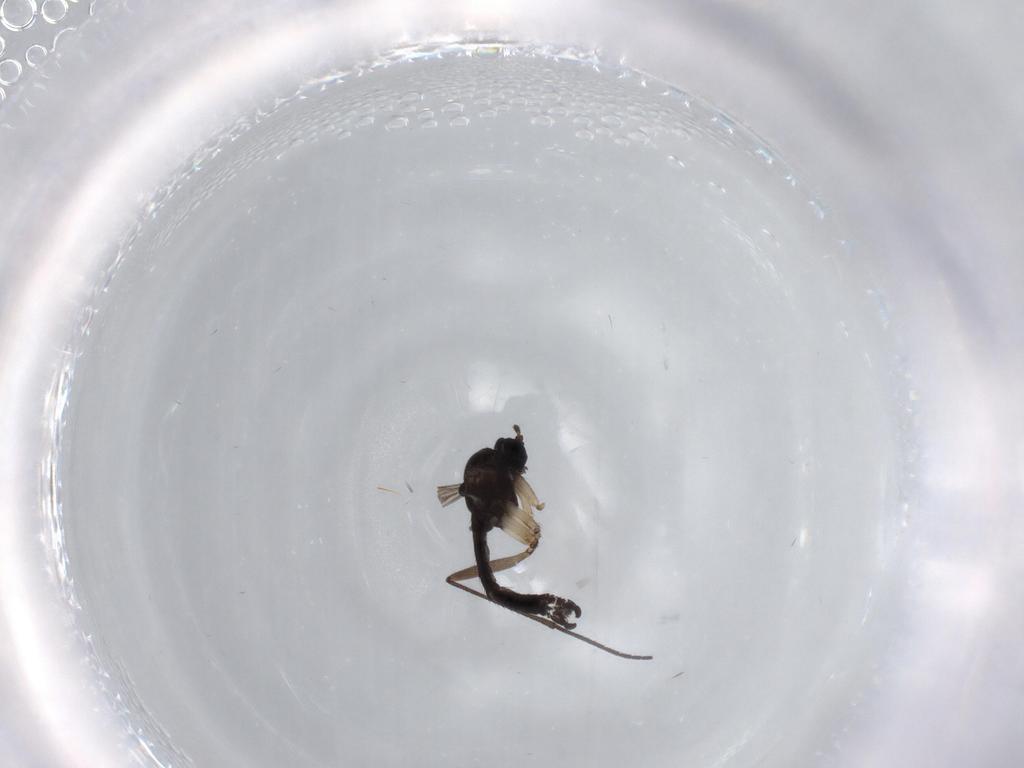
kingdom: Animalia
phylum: Arthropoda
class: Insecta
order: Diptera
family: Sciaridae
